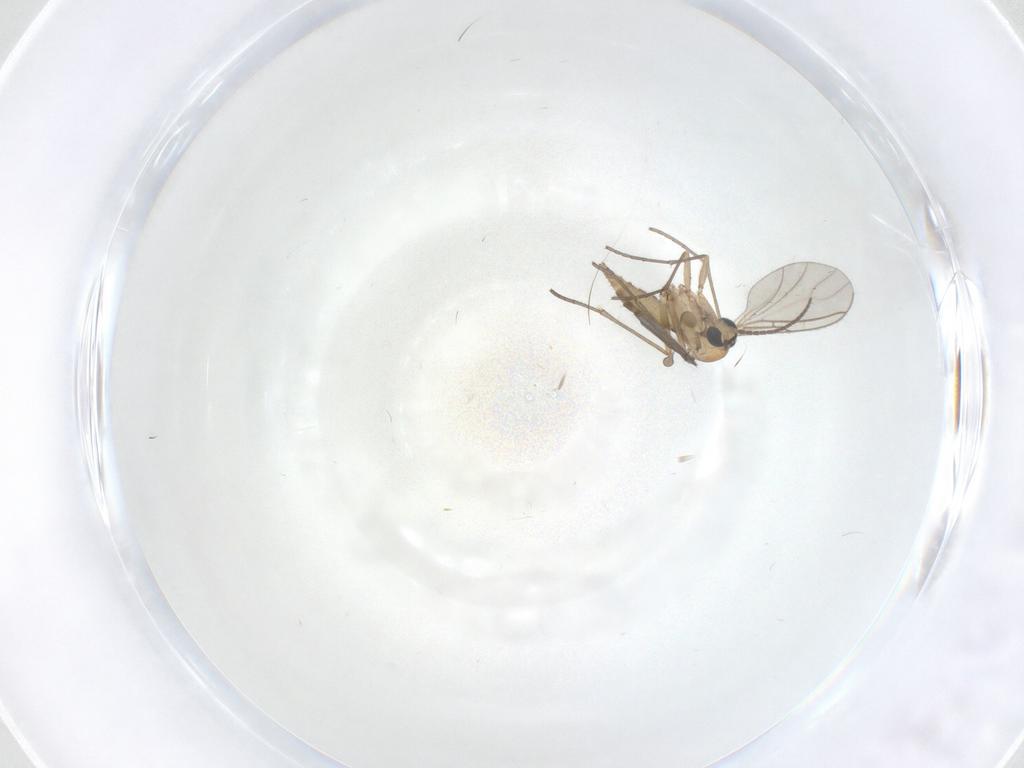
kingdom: Animalia
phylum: Arthropoda
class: Insecta
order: Diptera
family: Sciaridae
